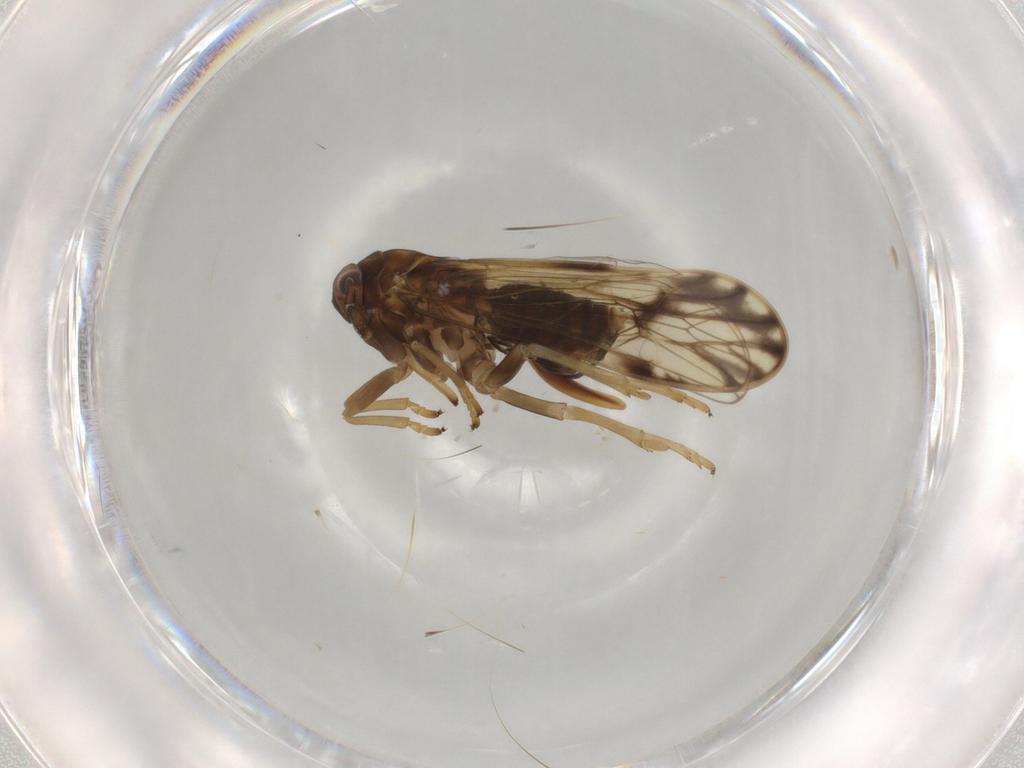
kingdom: Animalia
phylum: Arthropoda
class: Insecta
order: Hemiptera
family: Delphacidae
